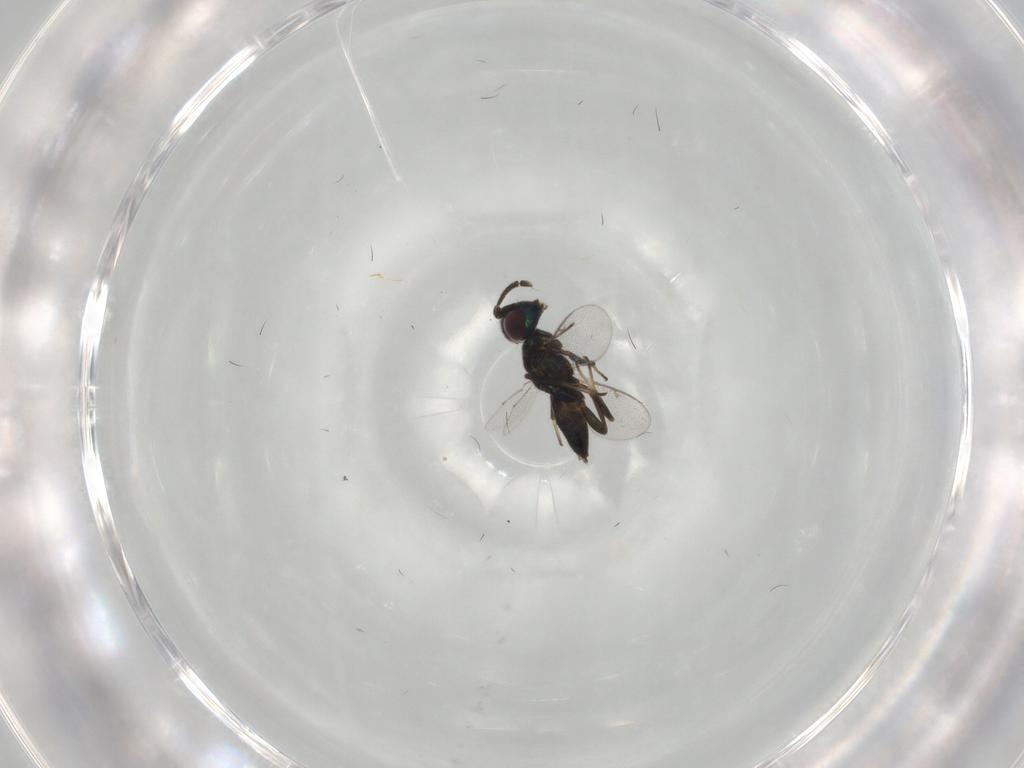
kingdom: Animalia
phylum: Arthropoda
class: Insecta
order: Hymenoptera
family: Eupelmidae
